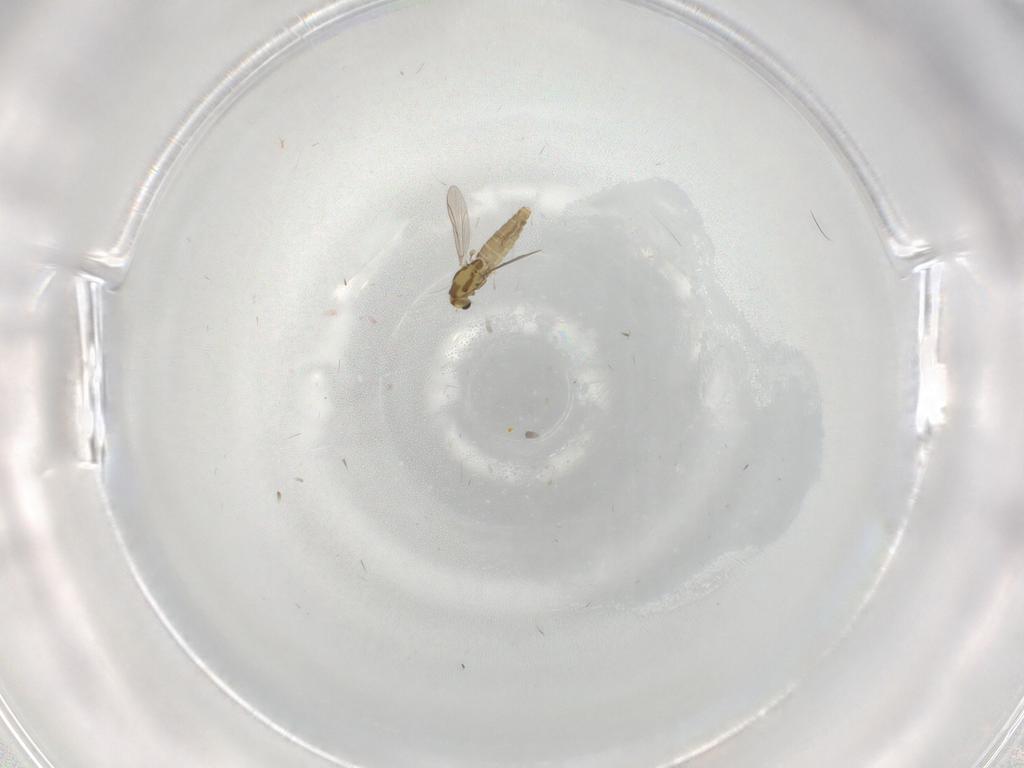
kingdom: Animalia
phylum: Arthropoda
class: Insecta
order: Diptera
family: Chironomidae
